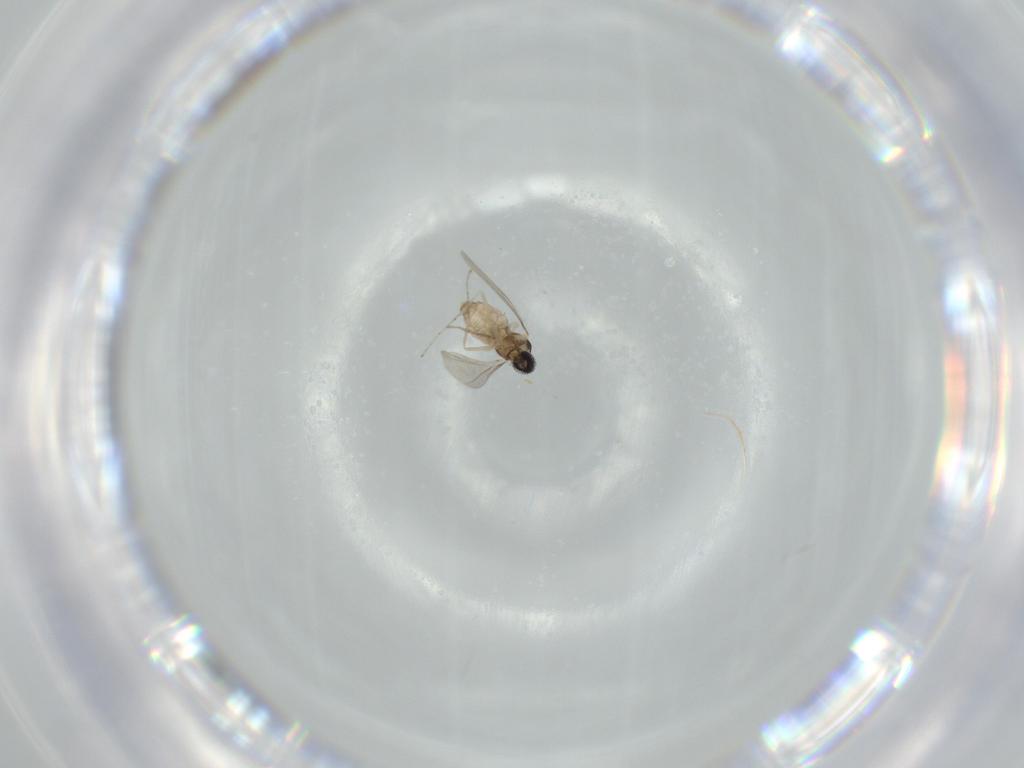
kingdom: Animalia
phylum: Arthropoda
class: Insecta
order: Diptera
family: Cecidomyiidae
